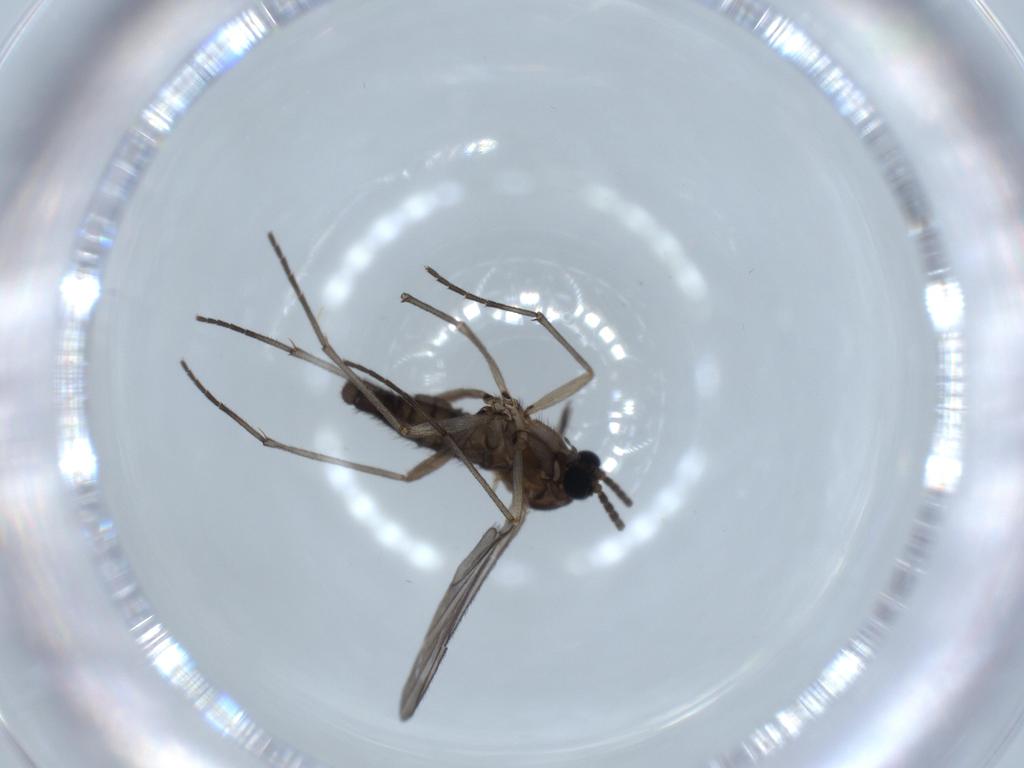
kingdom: Animalia
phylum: Arthropoda
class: Insecta
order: Diptera
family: Sciaridae
